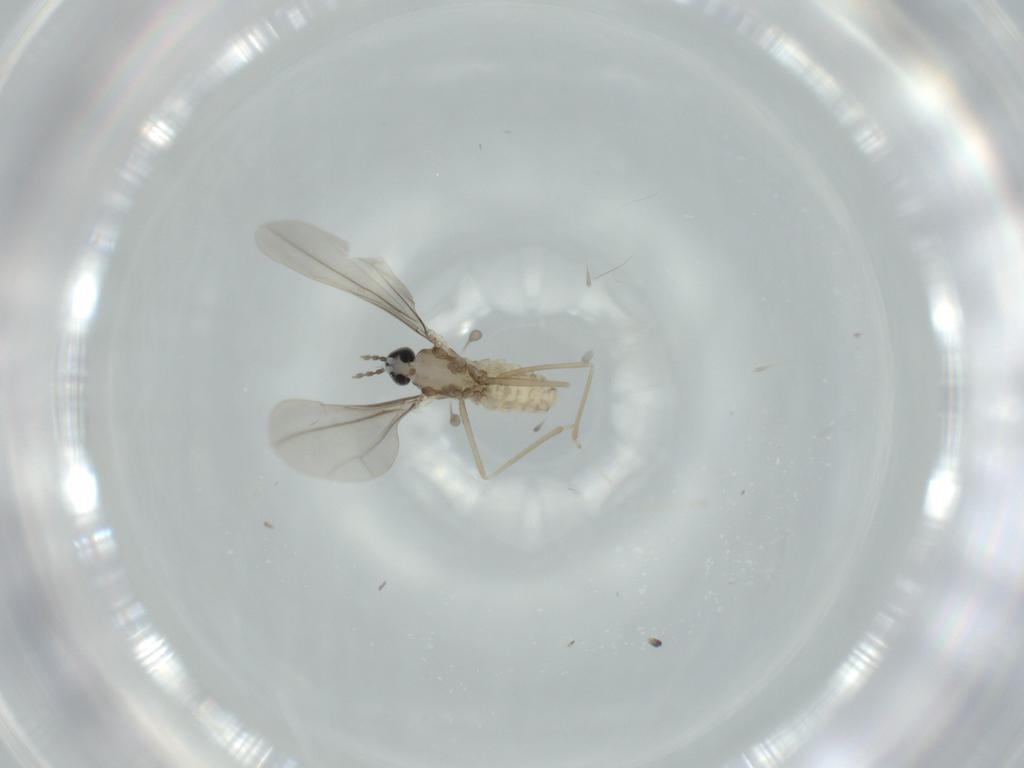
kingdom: Animalia
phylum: Arthropoda
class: Insecta
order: Diptera
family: Cecidomyiidae
